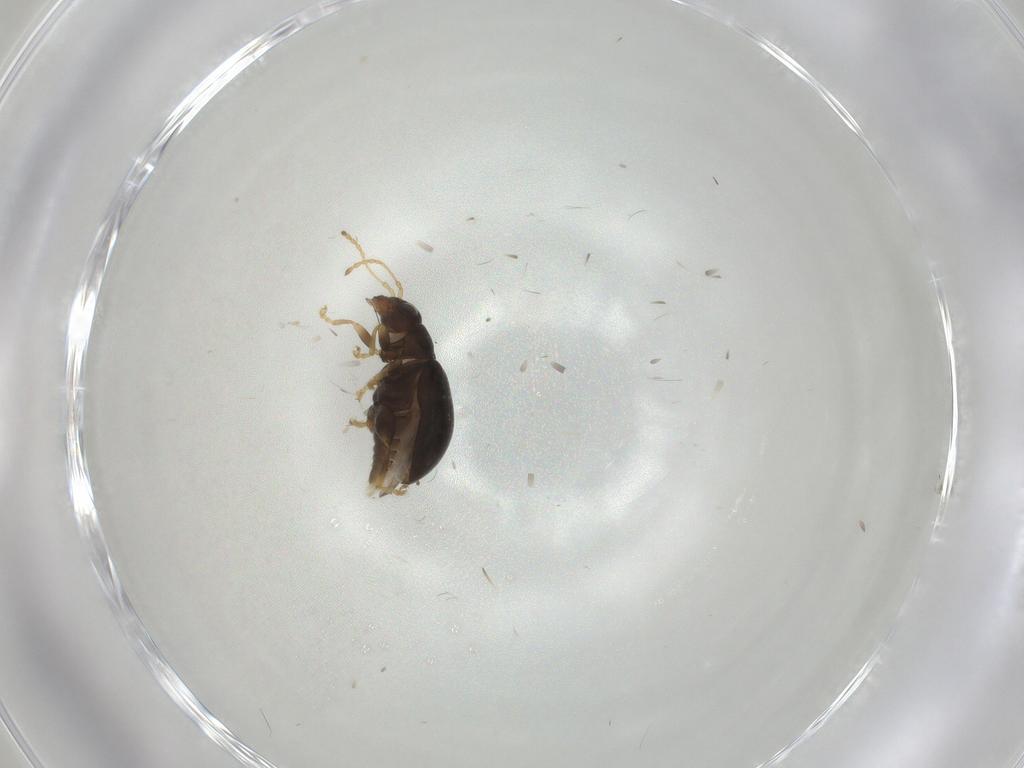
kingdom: Animalia
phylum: Arthropoda
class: Insecta
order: Coleoptera
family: Chrysomelidae
